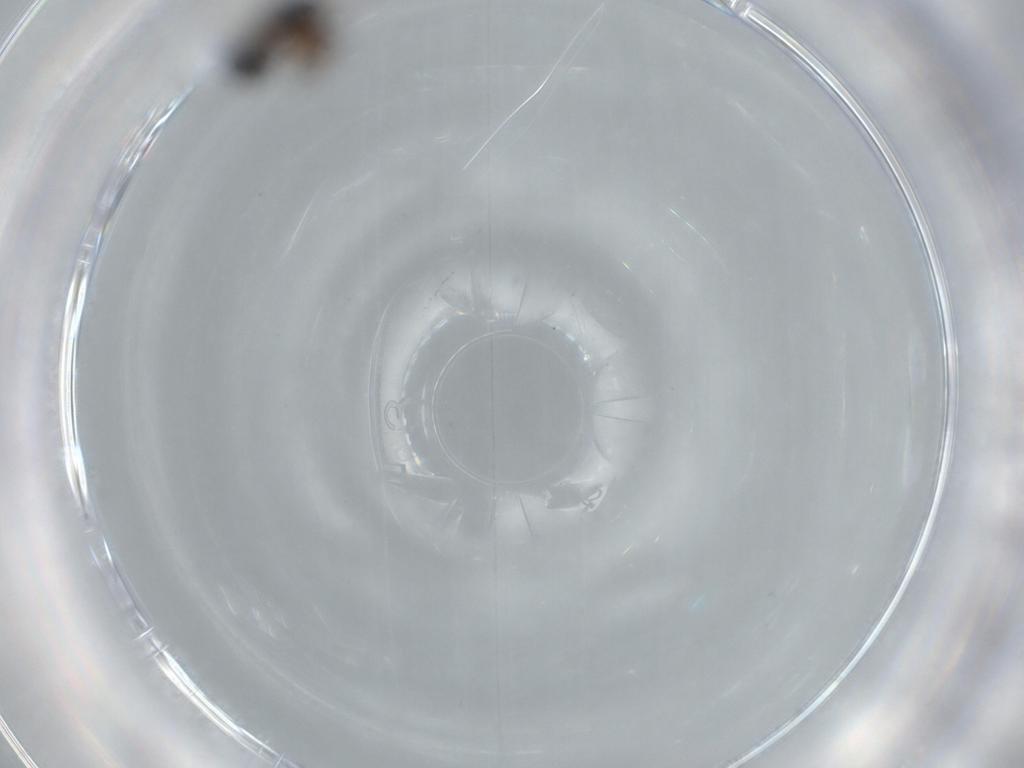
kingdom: Animalia
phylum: Arthropoda
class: Insecta
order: Hymenoptera
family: Diapriidae
